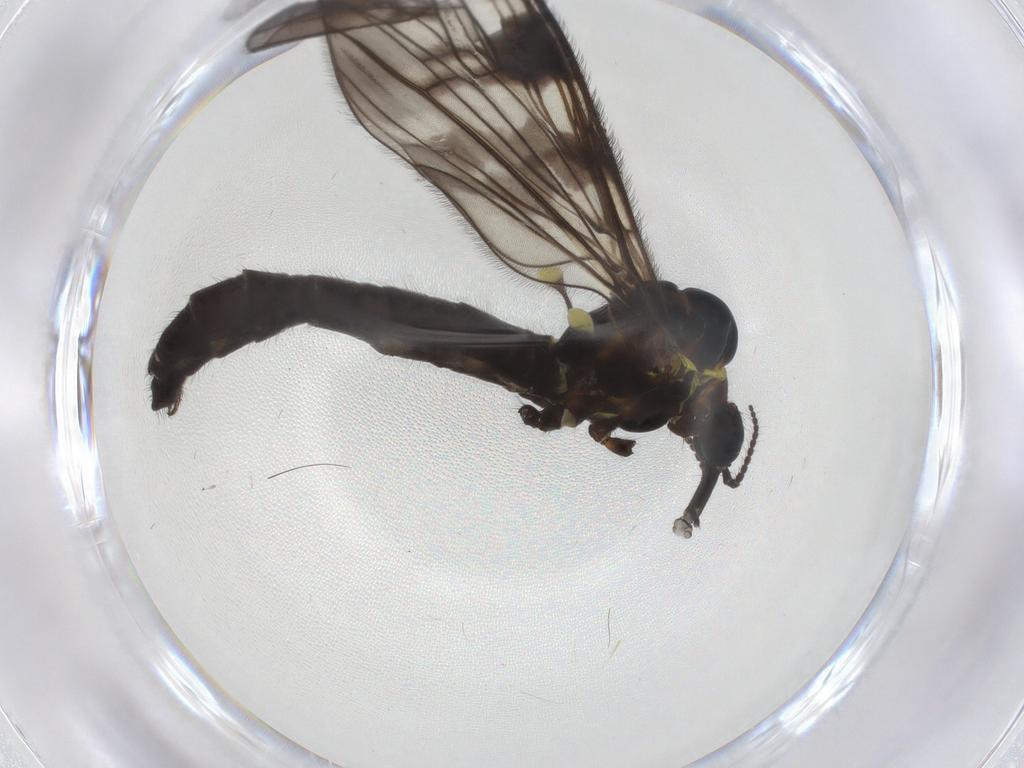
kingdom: Animalia
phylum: Arthropoda
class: Insecta
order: Diptera
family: Limoniidae
